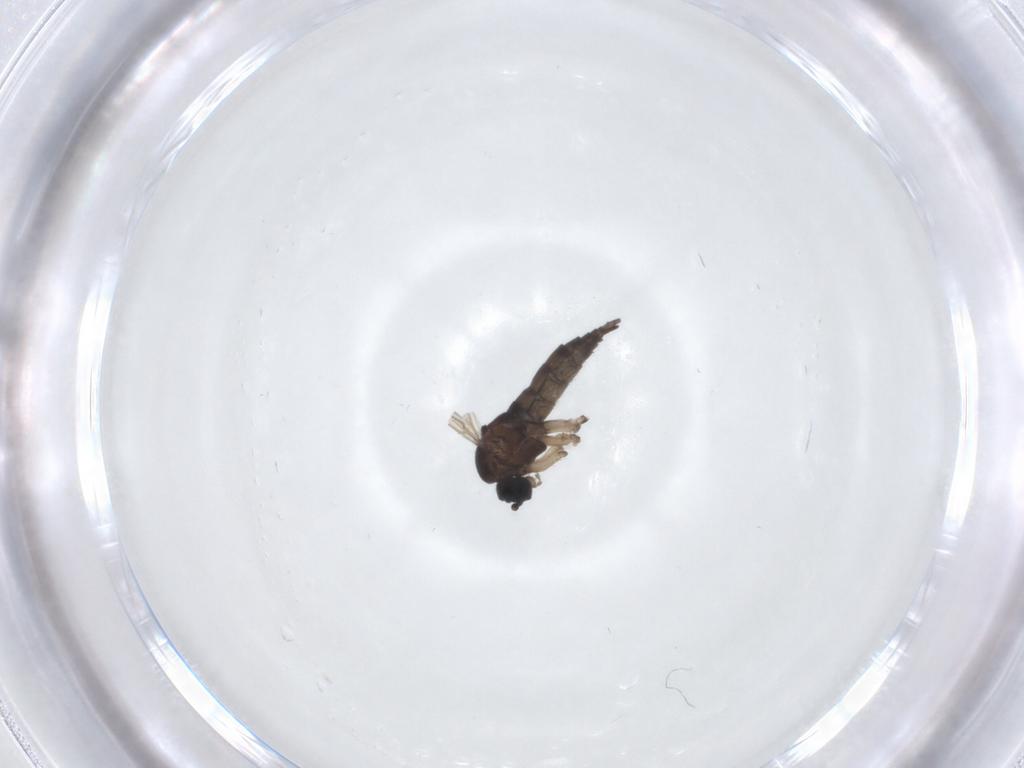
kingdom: Animalia
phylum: Arthropoda
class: Insecta
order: Diptera
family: Sciaridae
